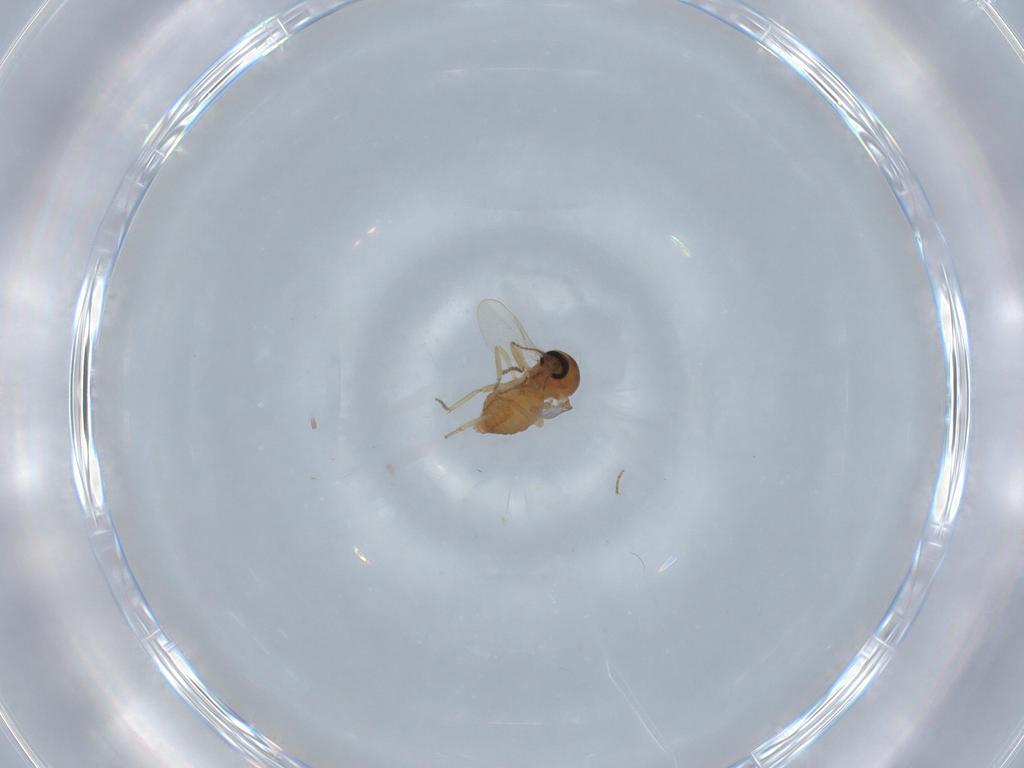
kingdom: Animalia
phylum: Arthropoda
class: Insecta
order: Diptera
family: Ceratopogonidae
